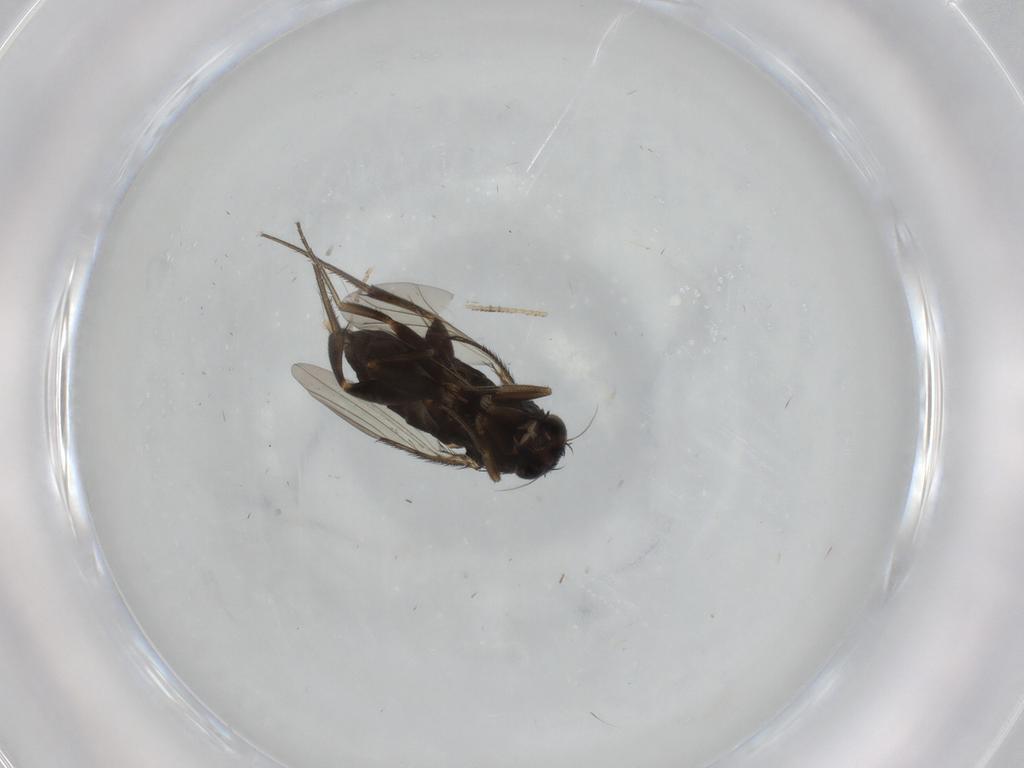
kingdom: Animalia
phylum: Arthropoda
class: Insecta
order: Diptera
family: Phoridae
